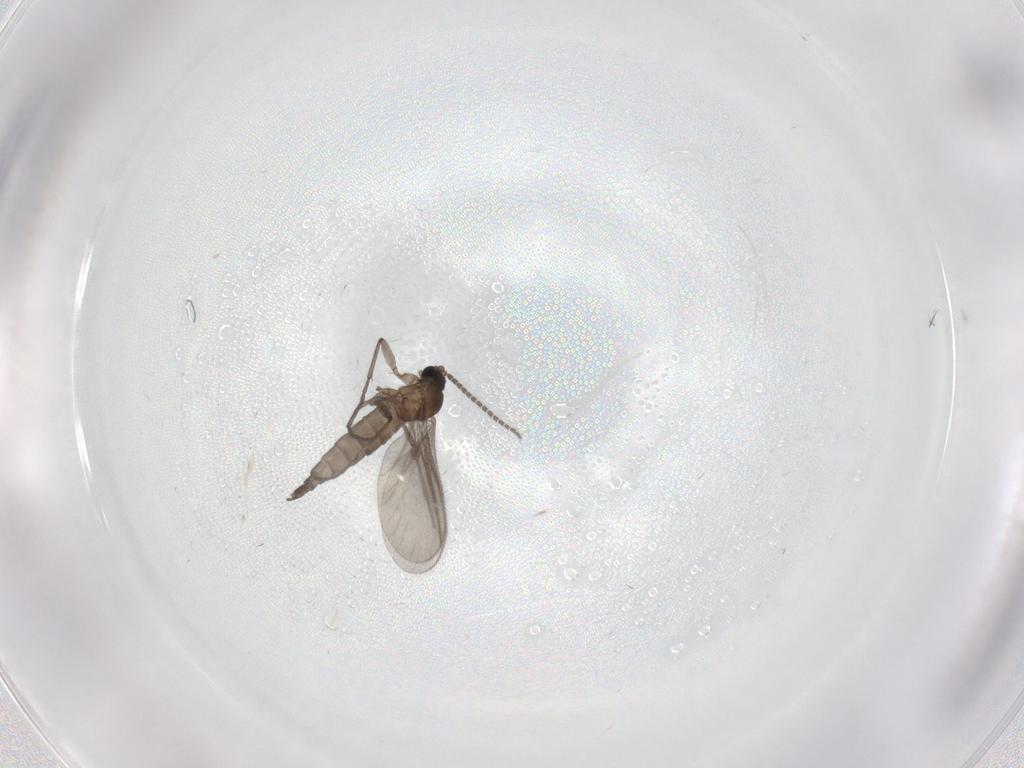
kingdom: Animalia
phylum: Arthropoda
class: Insecta
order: Diptera
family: Sciaridae
